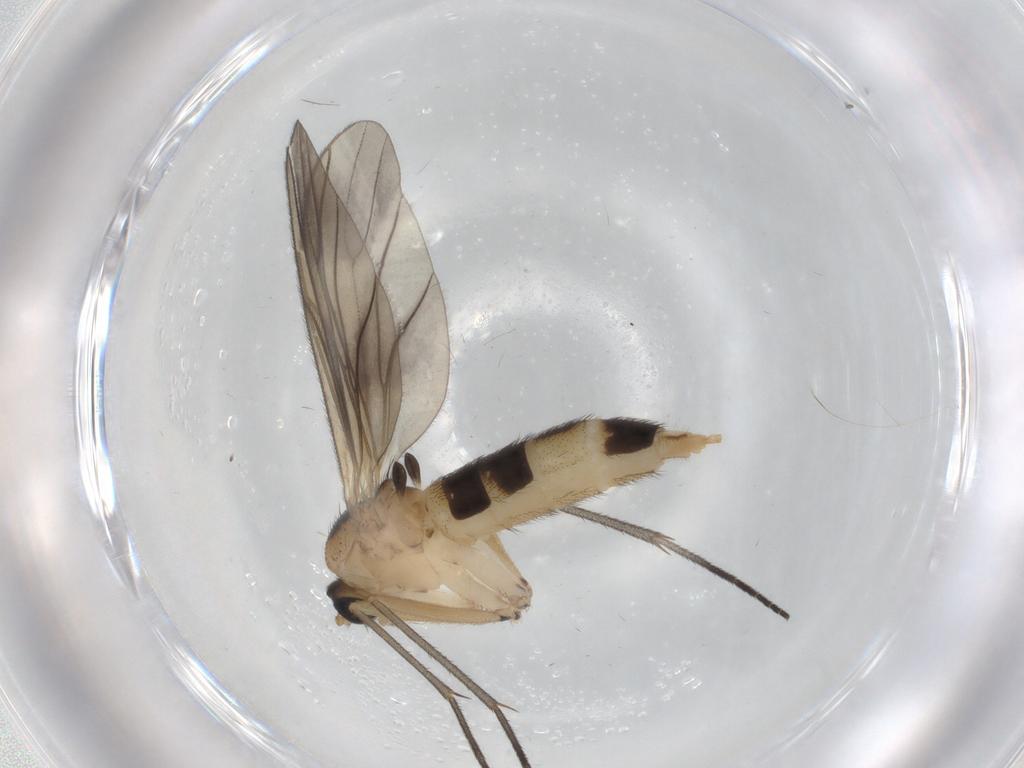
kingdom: Animalia
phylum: Arthropoda
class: Insecta
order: Diptera
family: Sciaridae
